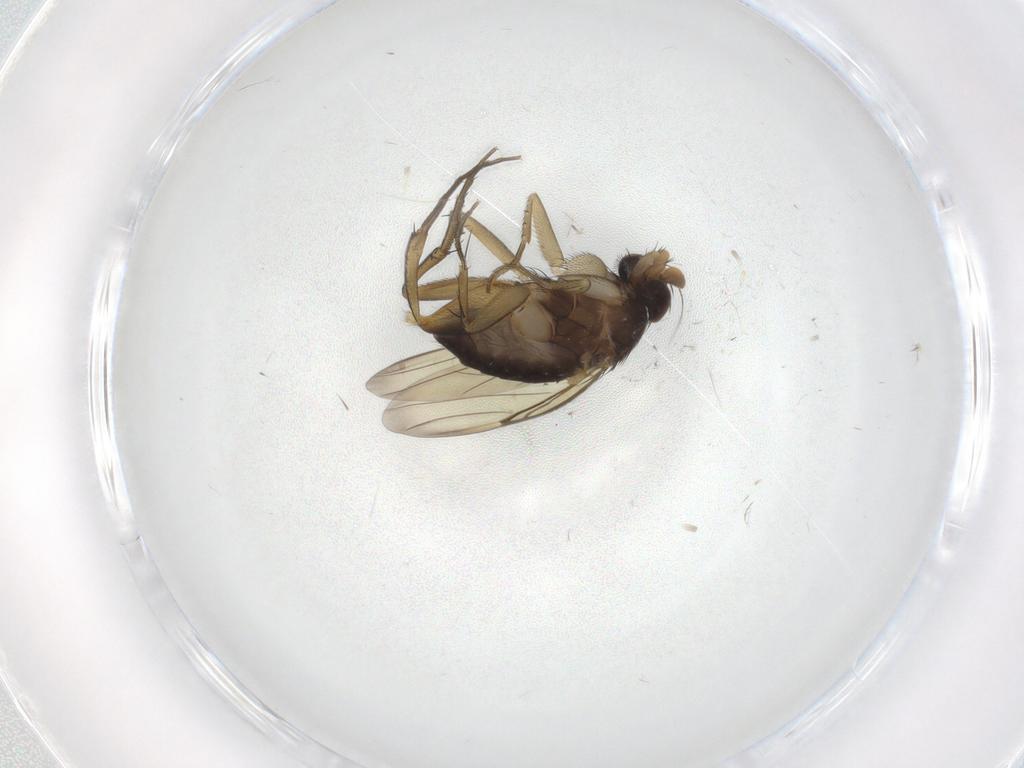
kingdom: Animalia
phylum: Arthropoda
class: Insecta
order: Diptera
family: Phoridae
